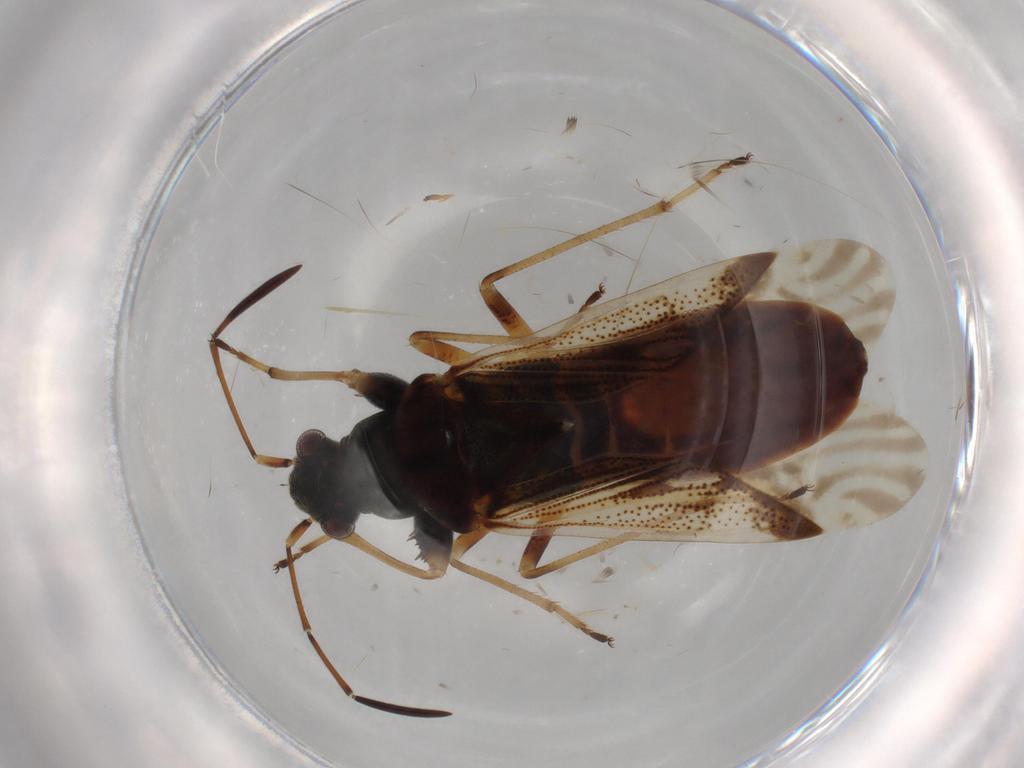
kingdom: Animalia
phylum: Arthropoda
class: Insecta
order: Hemiptera
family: Rhyparochromidae
